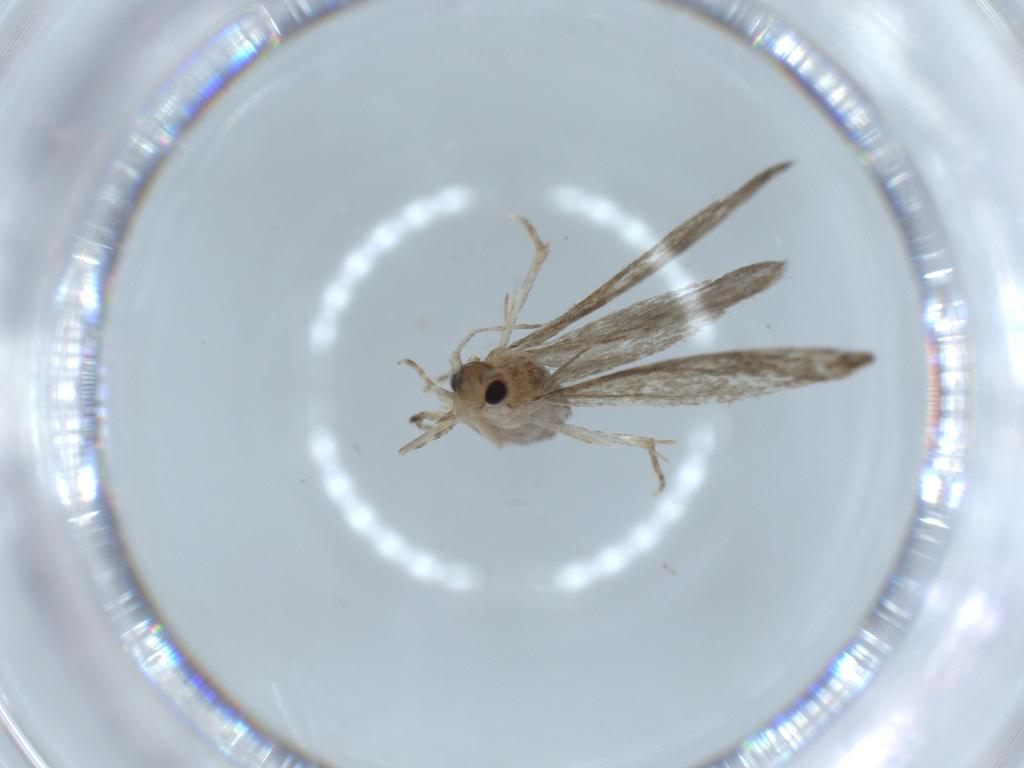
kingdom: Animalia
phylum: Arthropoda
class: Insecta
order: Lepidoptera
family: Tineidae
